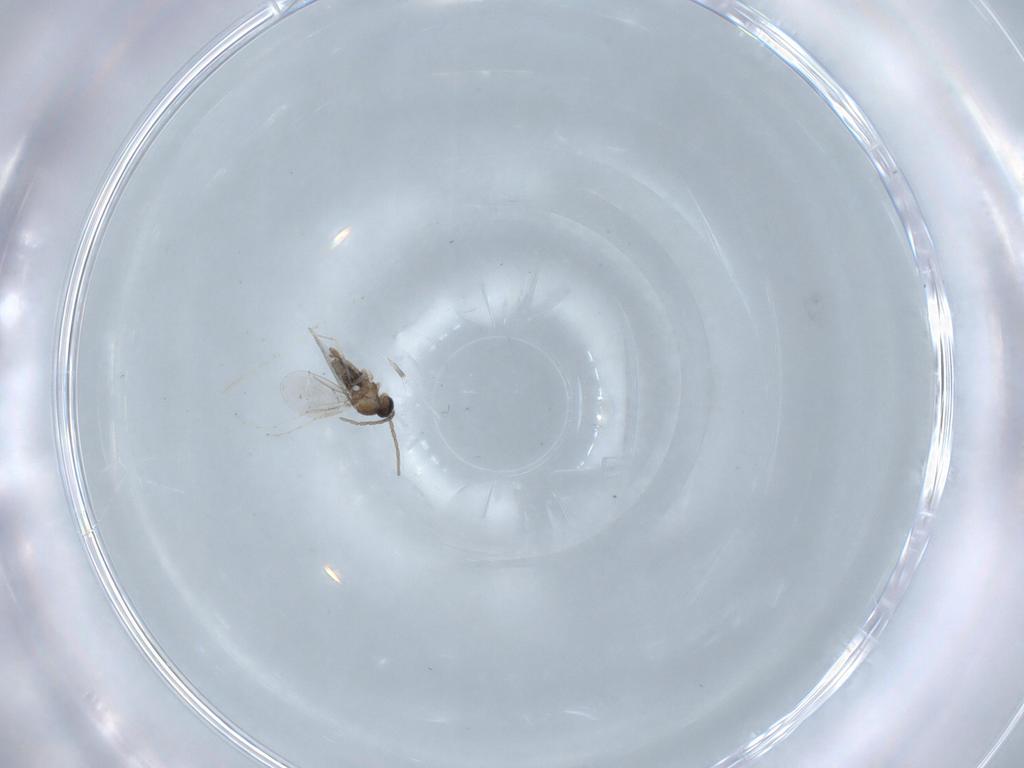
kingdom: Animalia
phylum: Arthropoda
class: Insecta
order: Diptera
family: Cecidomyiidae
